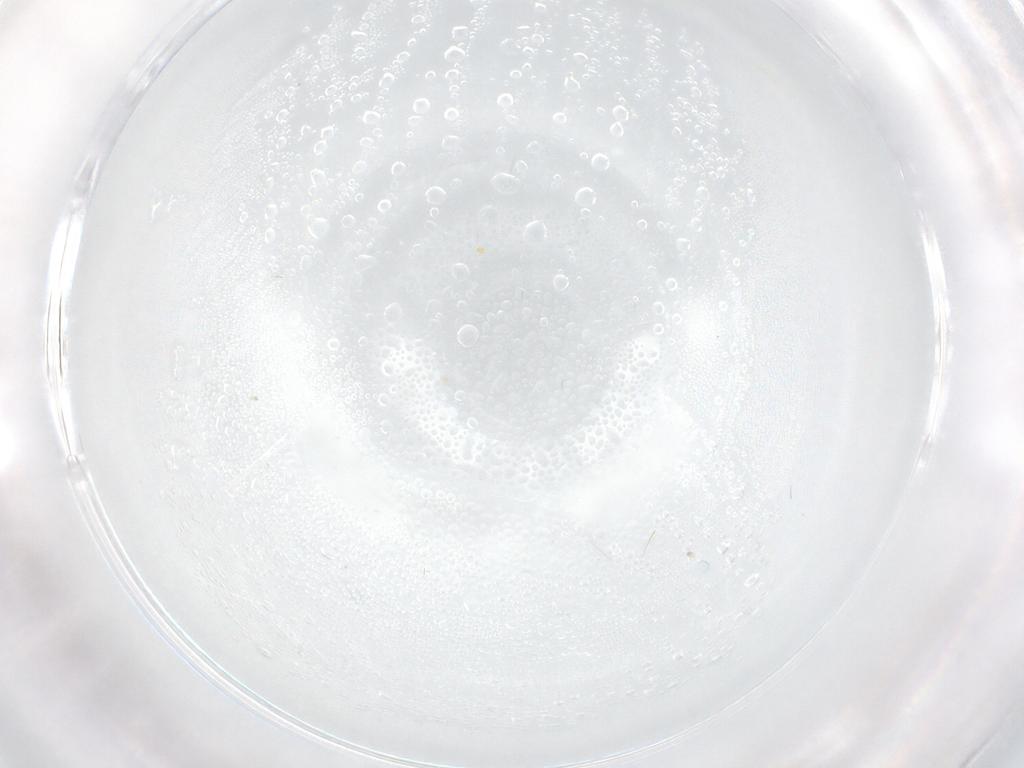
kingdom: Animalia
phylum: Arthropoda
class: Insecta
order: Psocodea
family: Lepidopsocidae
